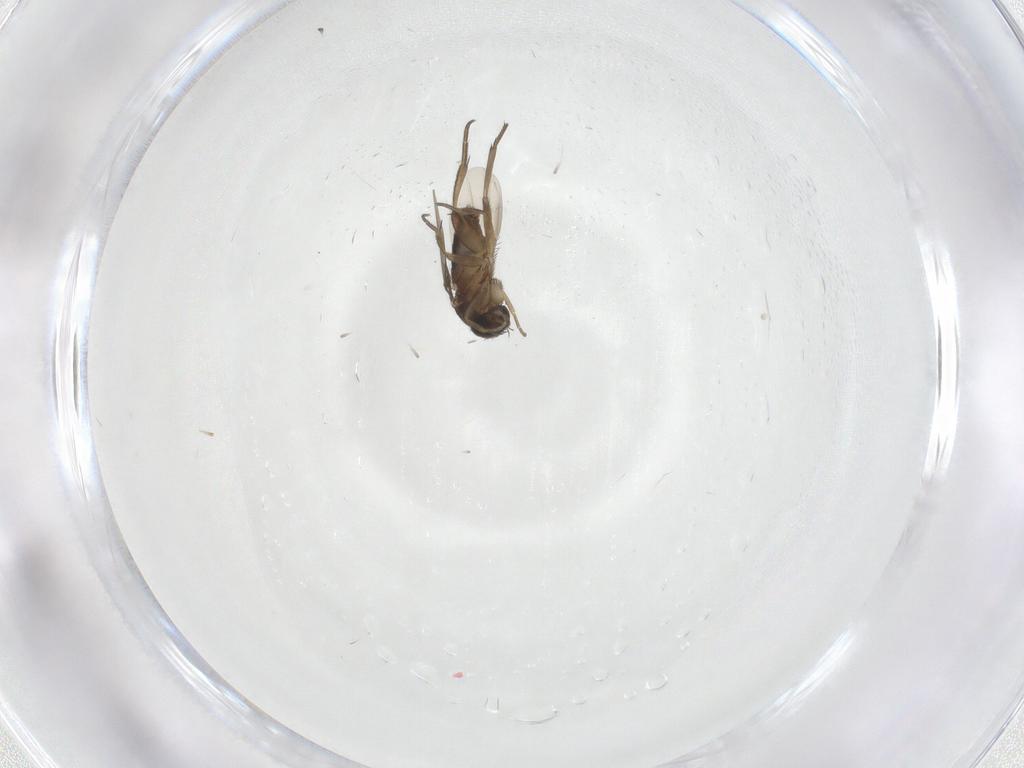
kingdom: Animalia
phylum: Arthropoda
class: Insecta
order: Diptera
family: Phoridae
